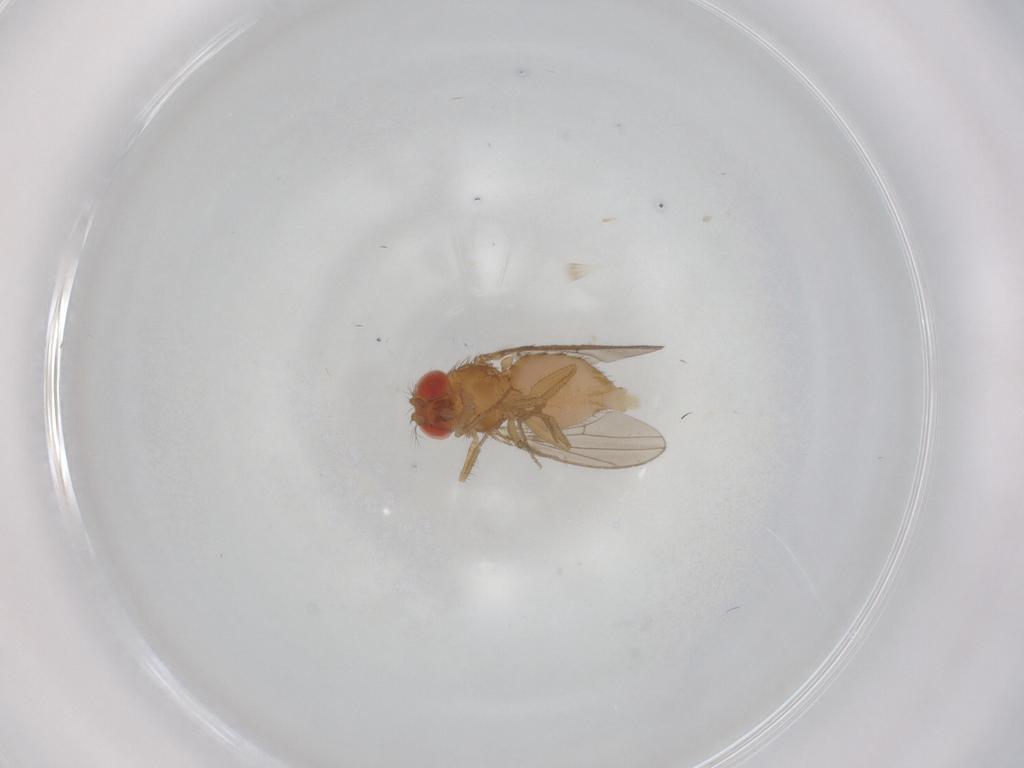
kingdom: Animalia
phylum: Arthropoda
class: Insecta
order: Diptera
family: Drosophilidae
